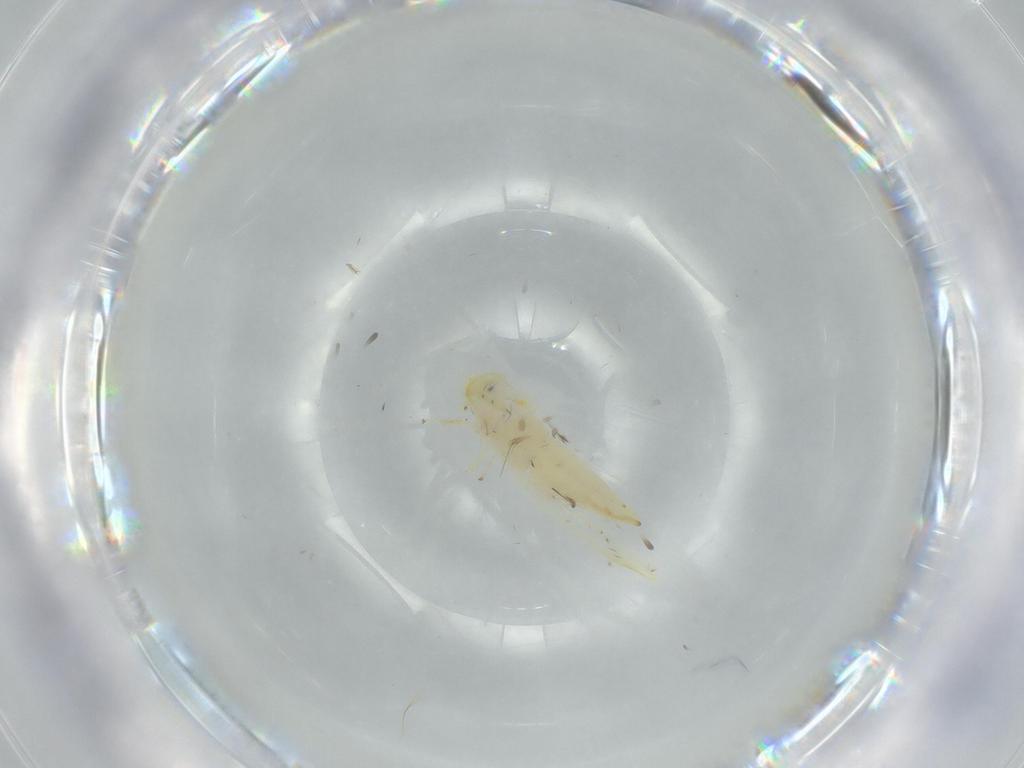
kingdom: Animalia
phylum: Arthropoda
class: Insecta
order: Hemiptera
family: Cicadellidae
